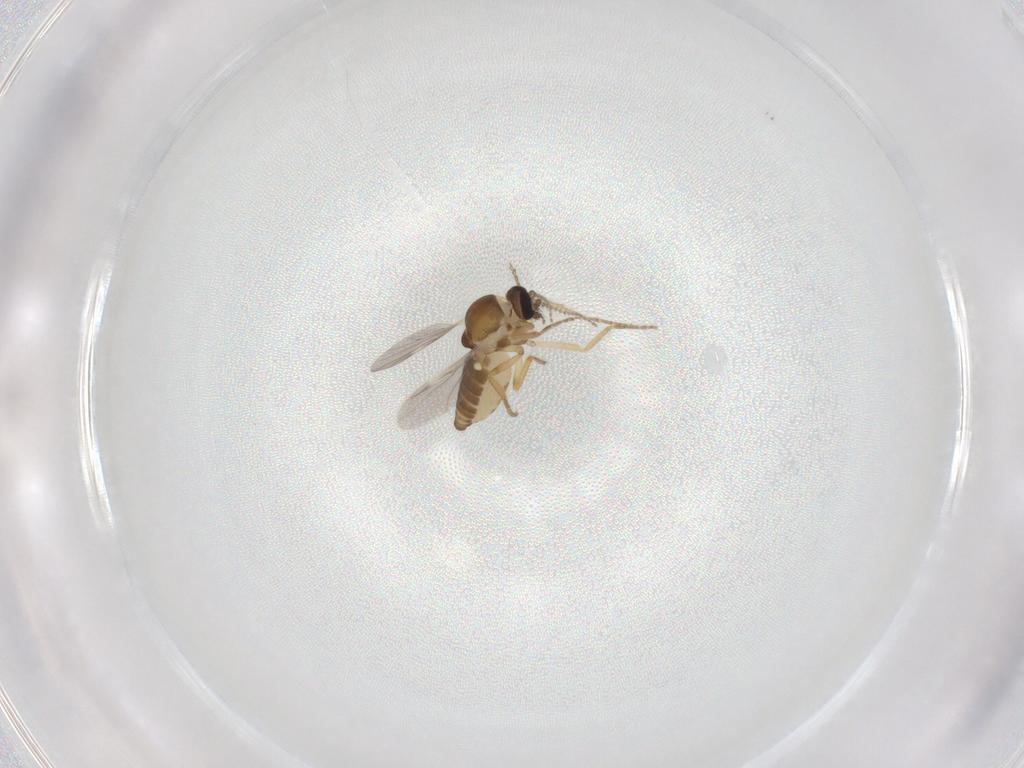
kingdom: Animalia
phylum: Arthropoda
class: Insecta
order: Diptera
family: Ceratopogonidae
